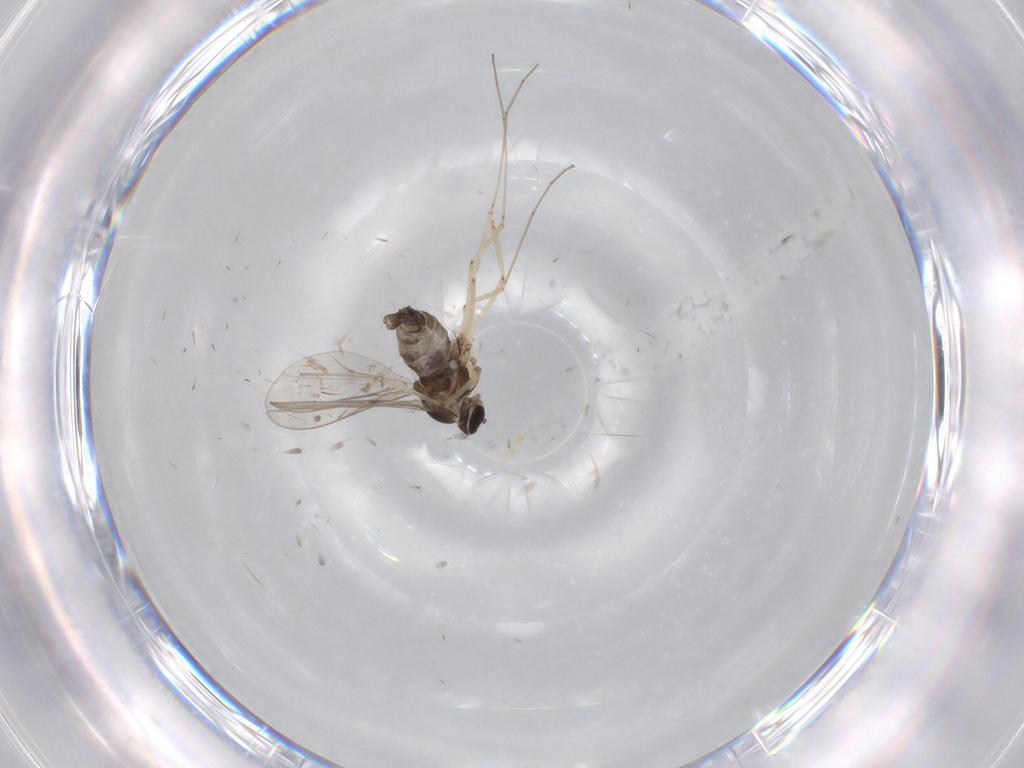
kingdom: Animalia
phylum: Arthropoda
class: Insecta
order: Diptera
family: Cecidomyiidae
